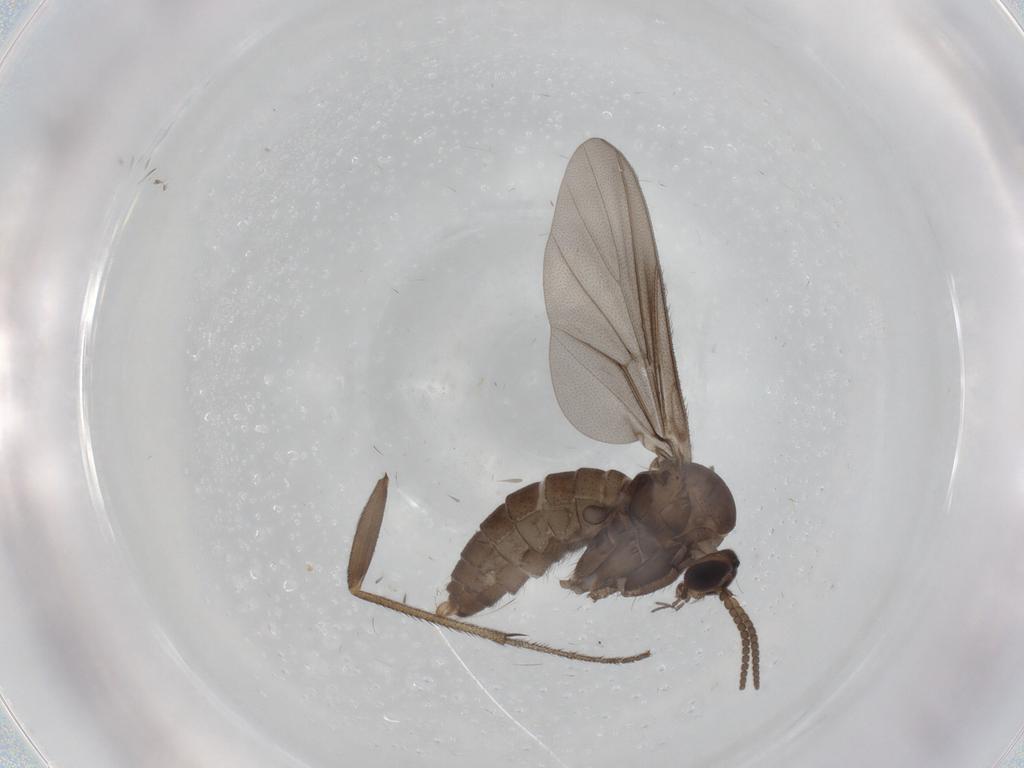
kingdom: Animalia
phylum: Arthropoda
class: Insecta
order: Diptera
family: Cecidomyiidae
